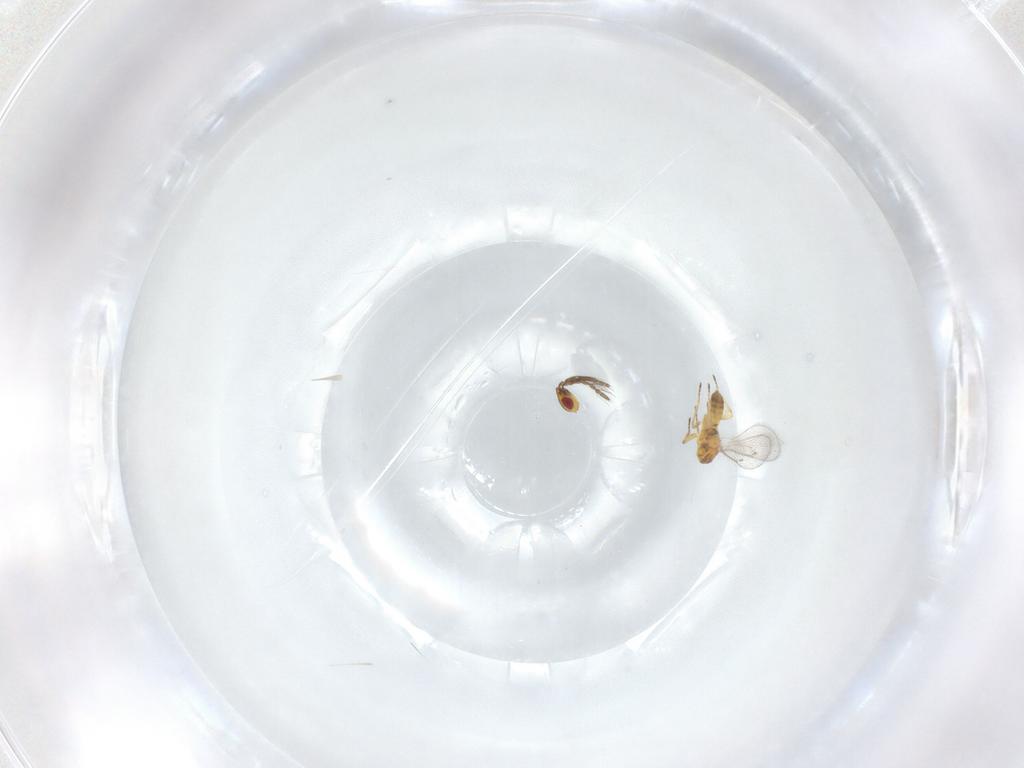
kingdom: Animalia
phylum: Arthropoda
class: Insecta
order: Hymenoptera
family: Eulophidae
